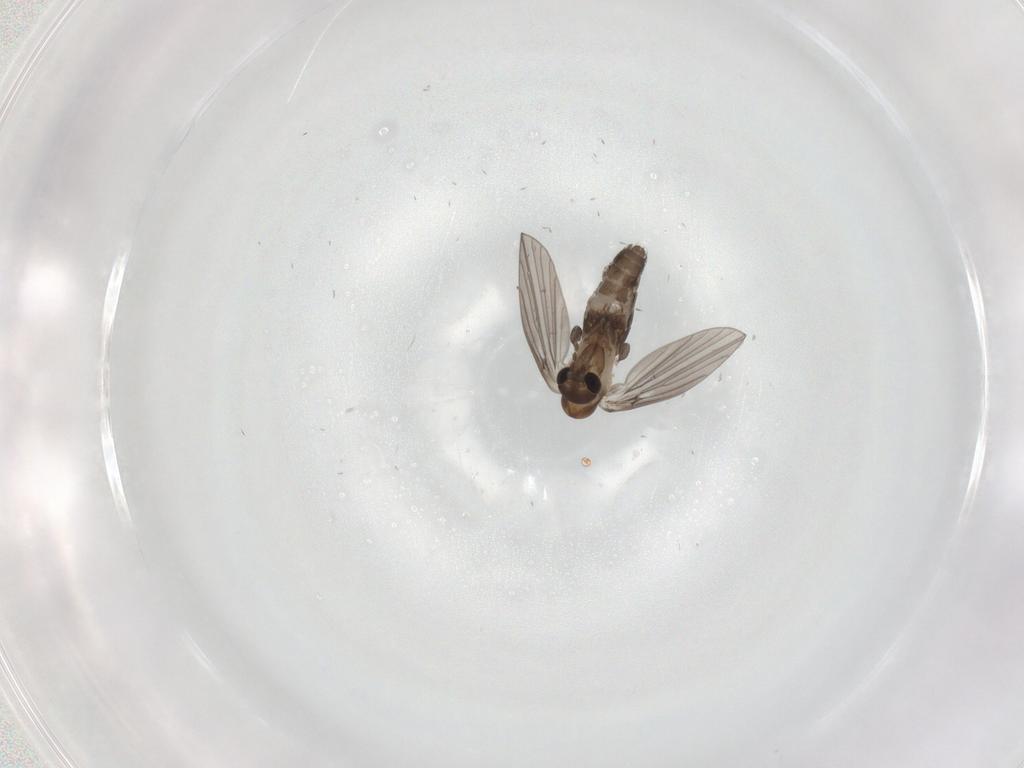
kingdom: Animalia
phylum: Arthropoda
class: Insecta
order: Diptera
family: Psychodidae
